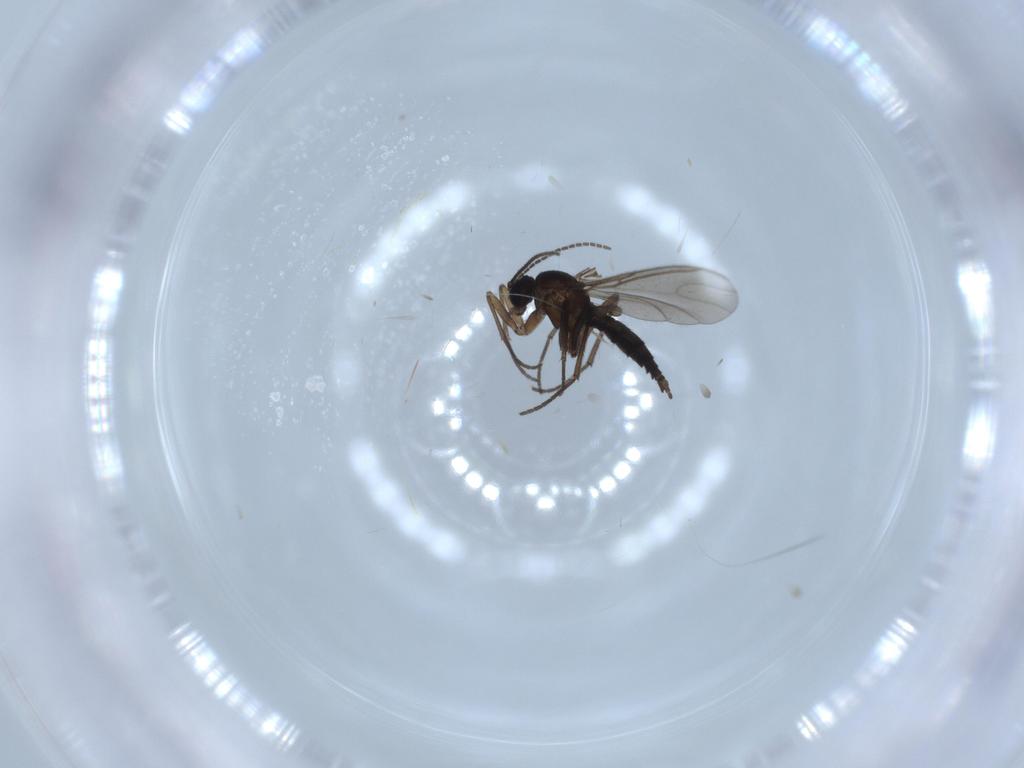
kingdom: Animalia
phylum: Arthropoda
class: Insecta
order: Diptera
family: Sciaridae
